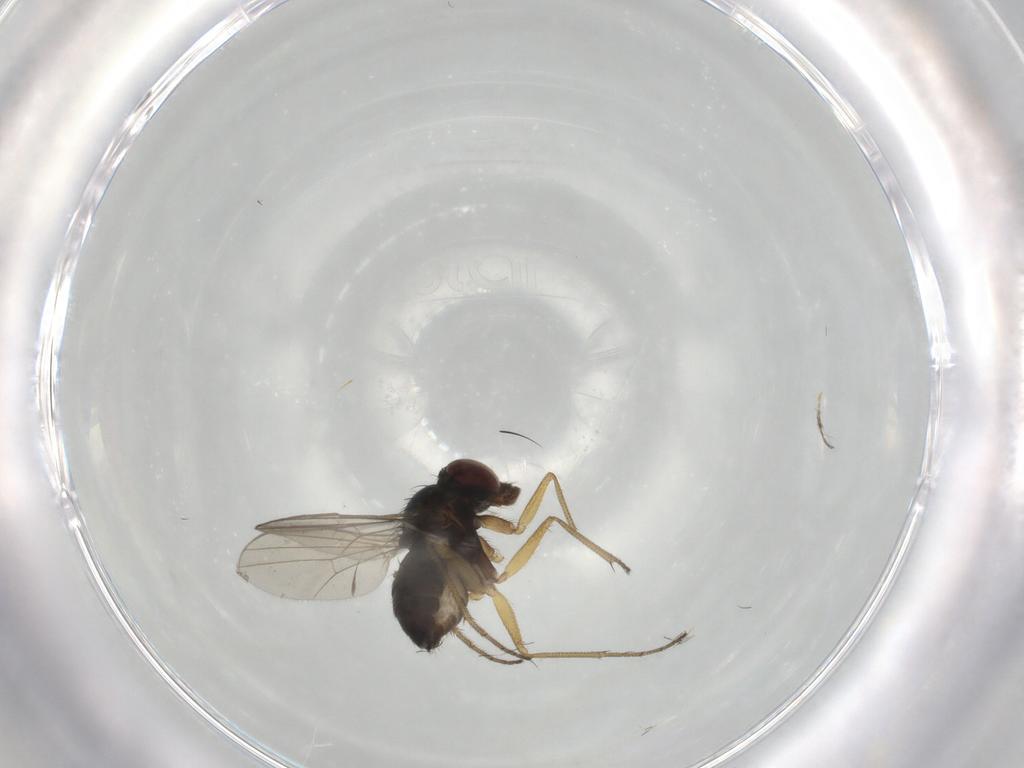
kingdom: Animalia
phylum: Arthropoda
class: Insecta
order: Diptera
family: Dolichopodidae
